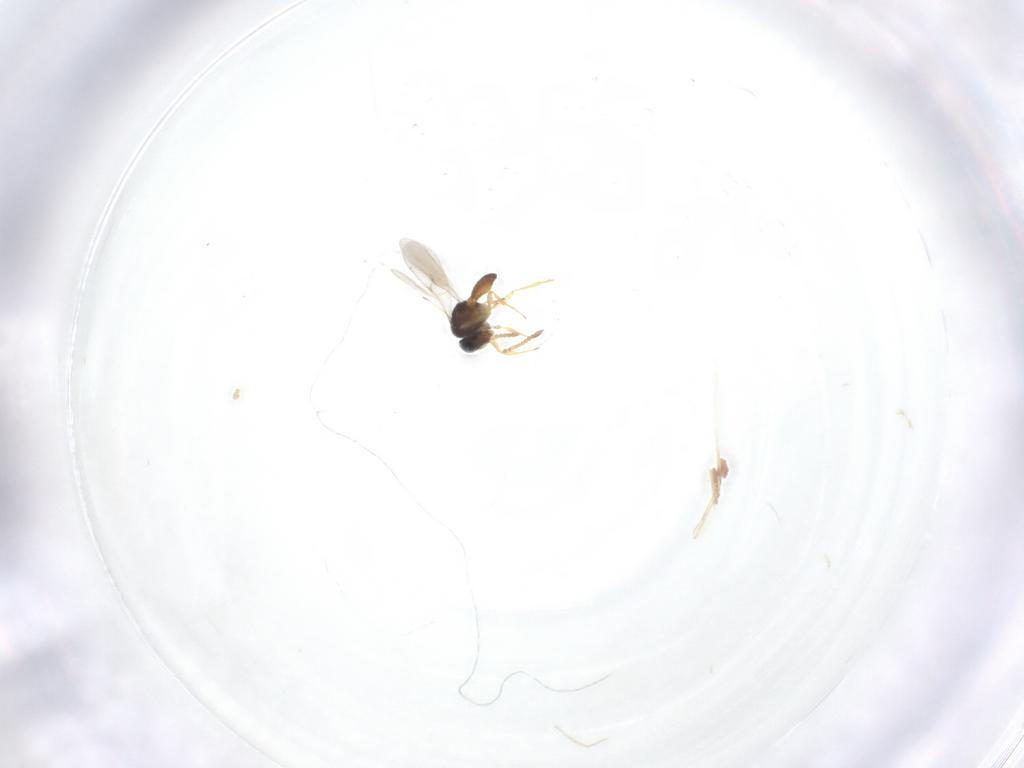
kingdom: Animalia
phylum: Arthropoda
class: Insecta
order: Hymenoptera
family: Scelionidae
